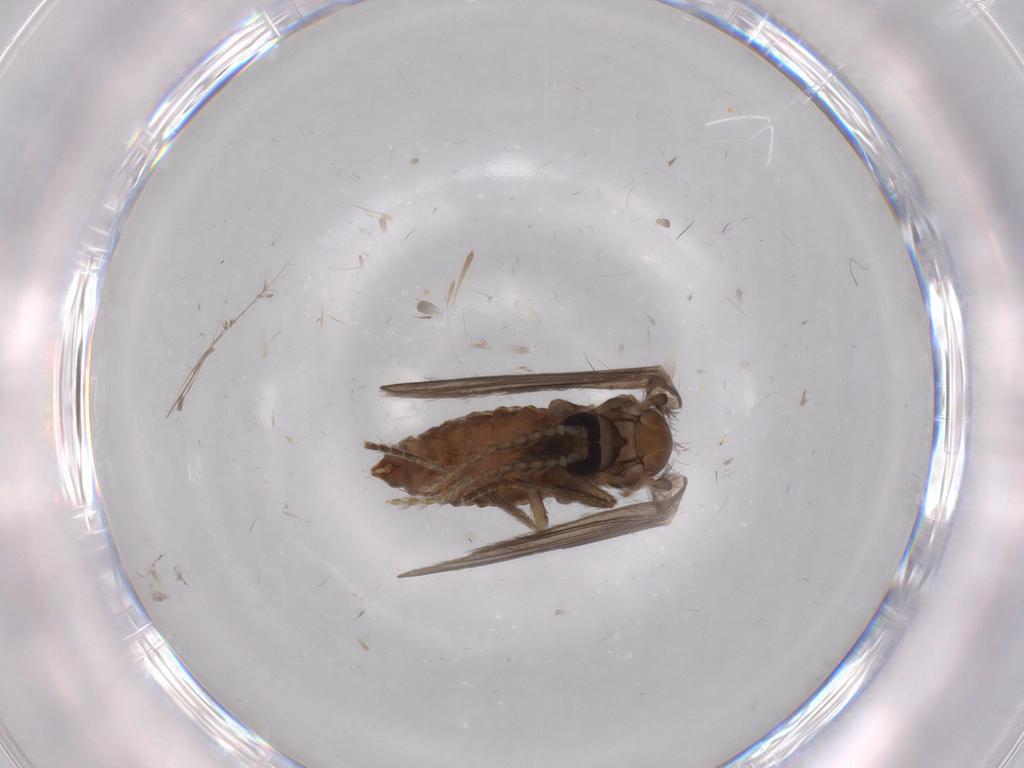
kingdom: Animalia
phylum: Arthropoda
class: Insecta
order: Diptera
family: Psychodidae
